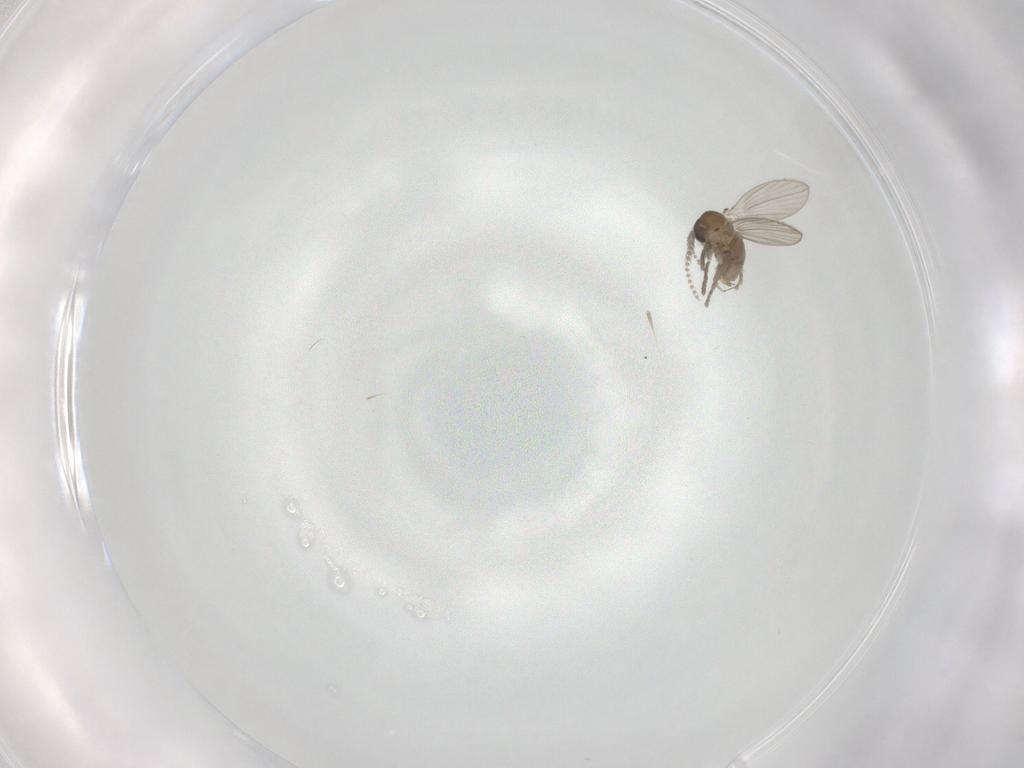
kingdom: Animalia
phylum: Arthropoda
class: Insecta
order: Diptera
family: Psychodidae
